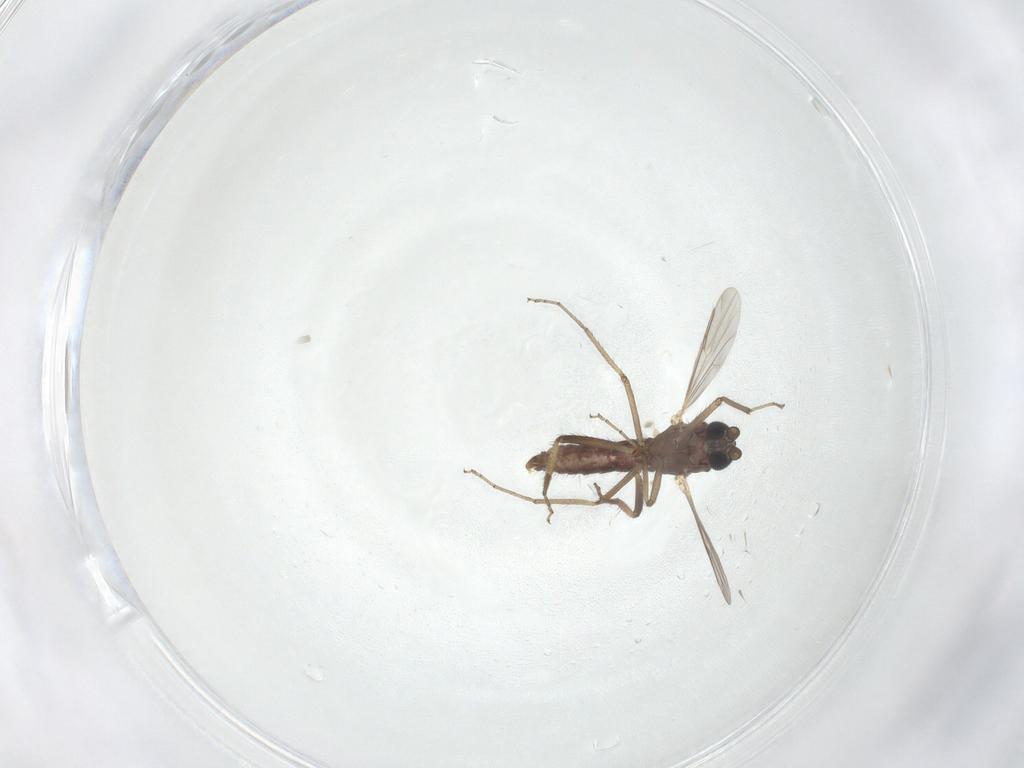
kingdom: Animalia
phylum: Arthropoda
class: Insecta
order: Diptera
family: Ceratopogonidae
